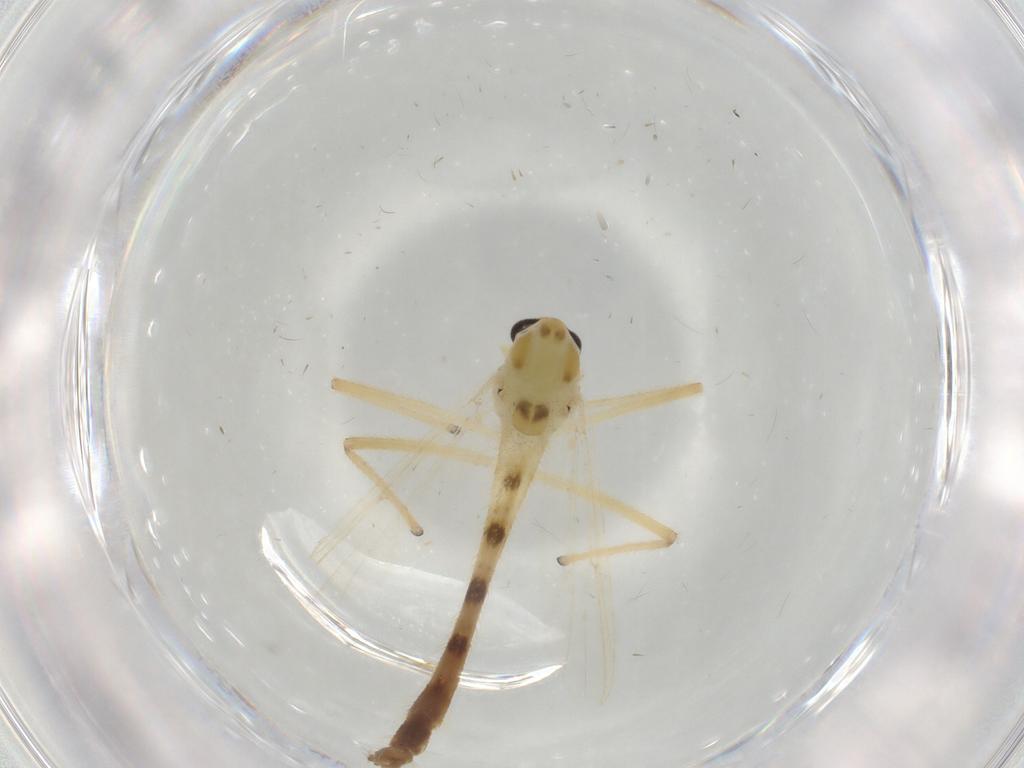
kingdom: Animalia
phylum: Arthropoda
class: Insecta
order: Diptera
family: Chironomidae
